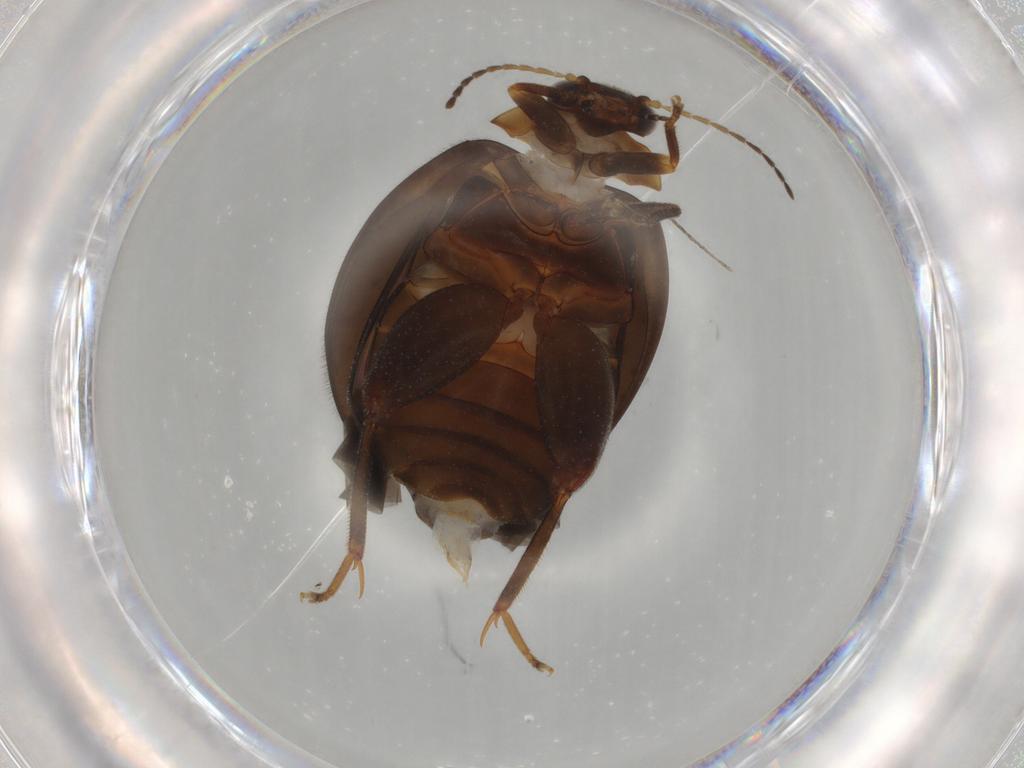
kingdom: Animalia
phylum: Arthropoda
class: Insecta
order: Coleoptera
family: Scirtidae
